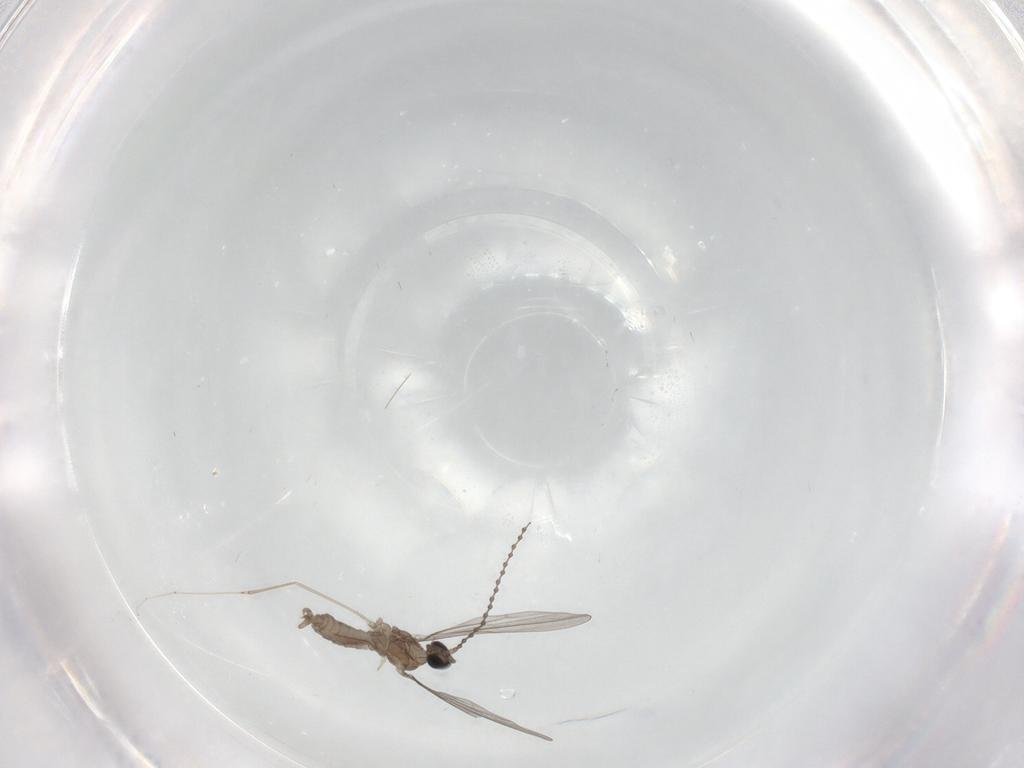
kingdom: Animalia
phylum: Arthropoda
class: Insecta
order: Diptera
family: Cecidomyiidae
